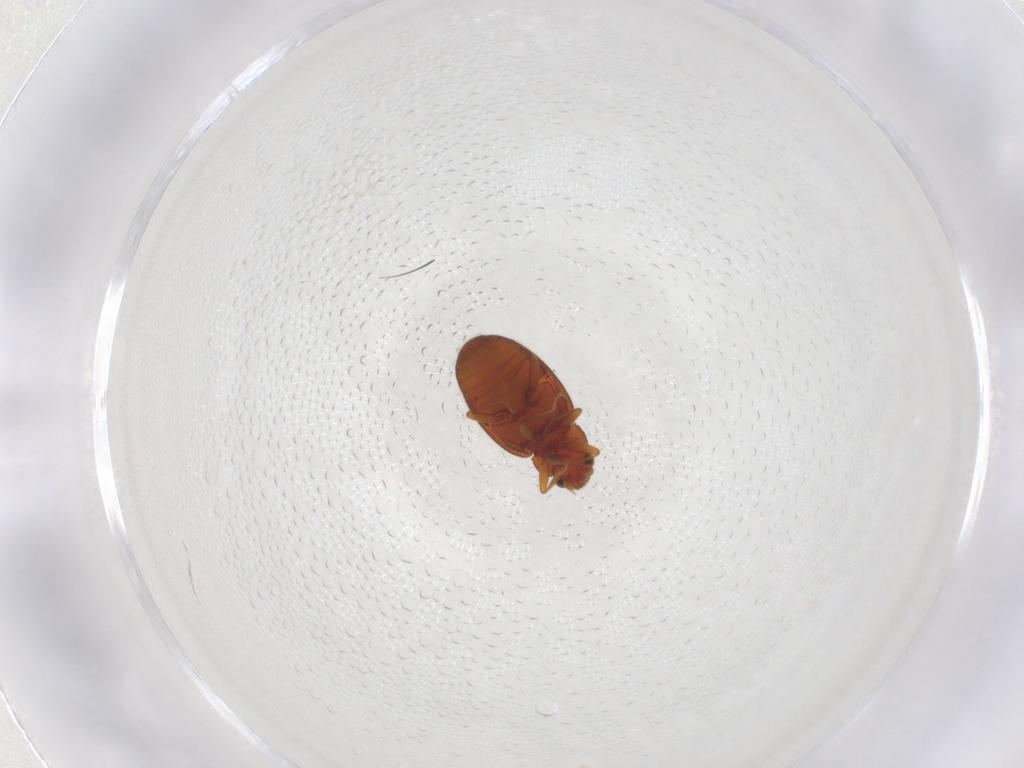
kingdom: Animalia
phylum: Arthropoda
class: Insecta
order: Coleoptera
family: Latridiidae
